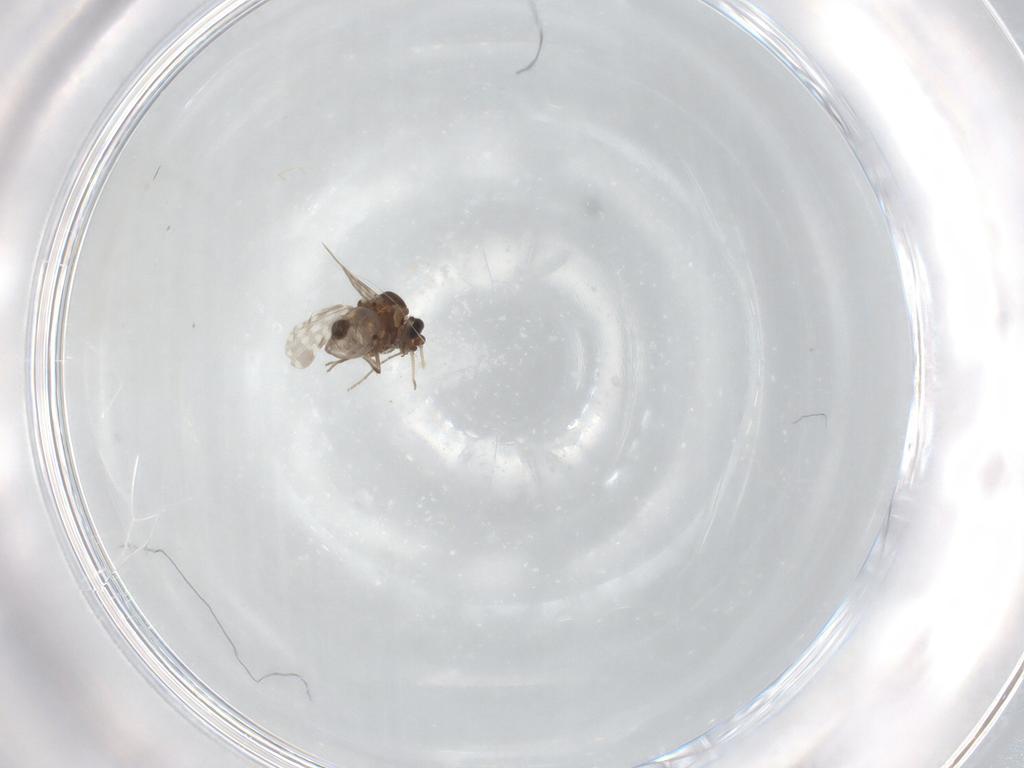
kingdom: Animalia
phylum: Arthropoda
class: Insecta
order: Diptera
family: Ceratopogonidae
